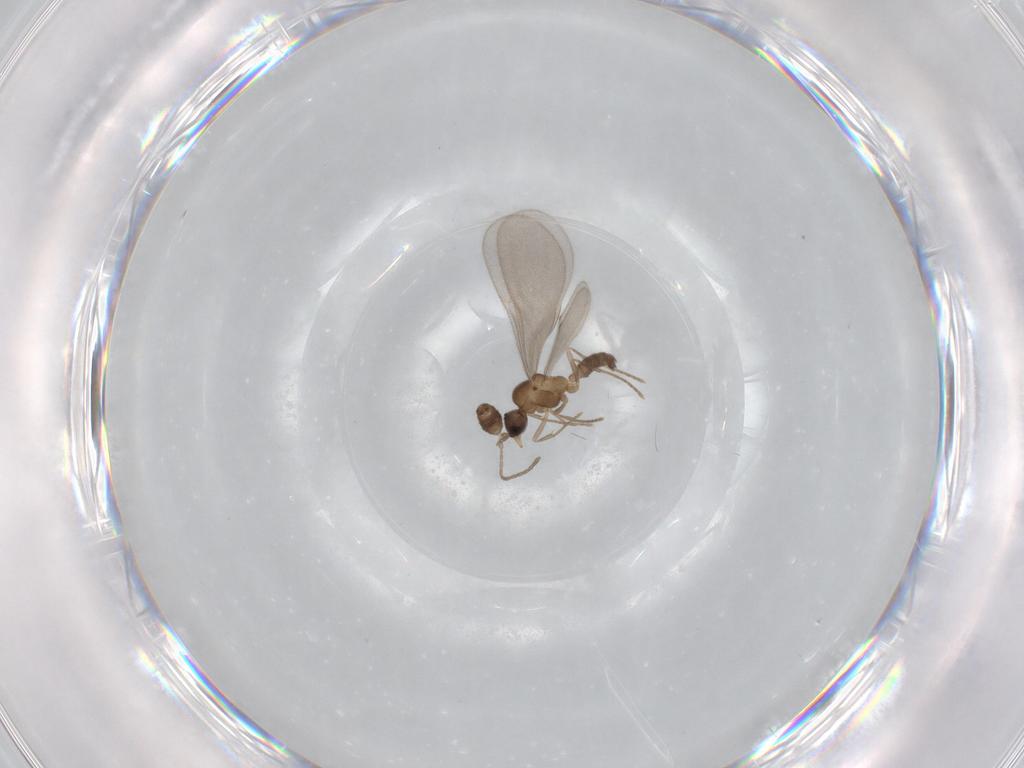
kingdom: Animalia
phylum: Arthropoda
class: Insecta
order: Hymenoptera
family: Formicidae
